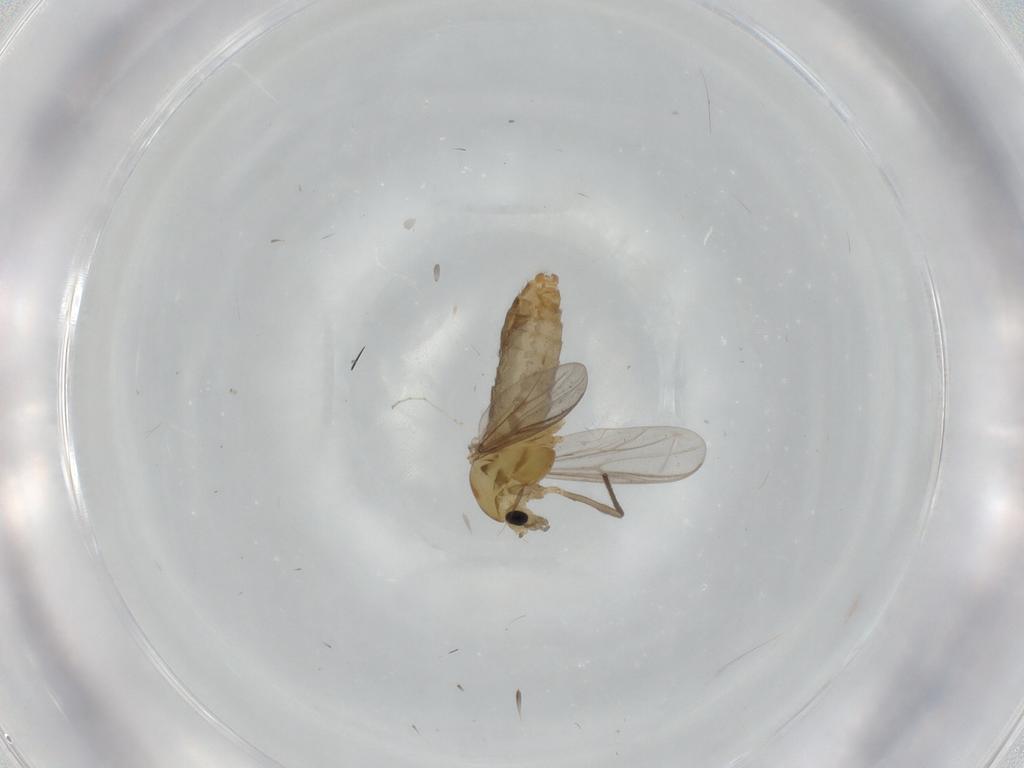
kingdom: Animalia
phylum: Arthropoda
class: Insecta
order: Diptera
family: Chironomidae
